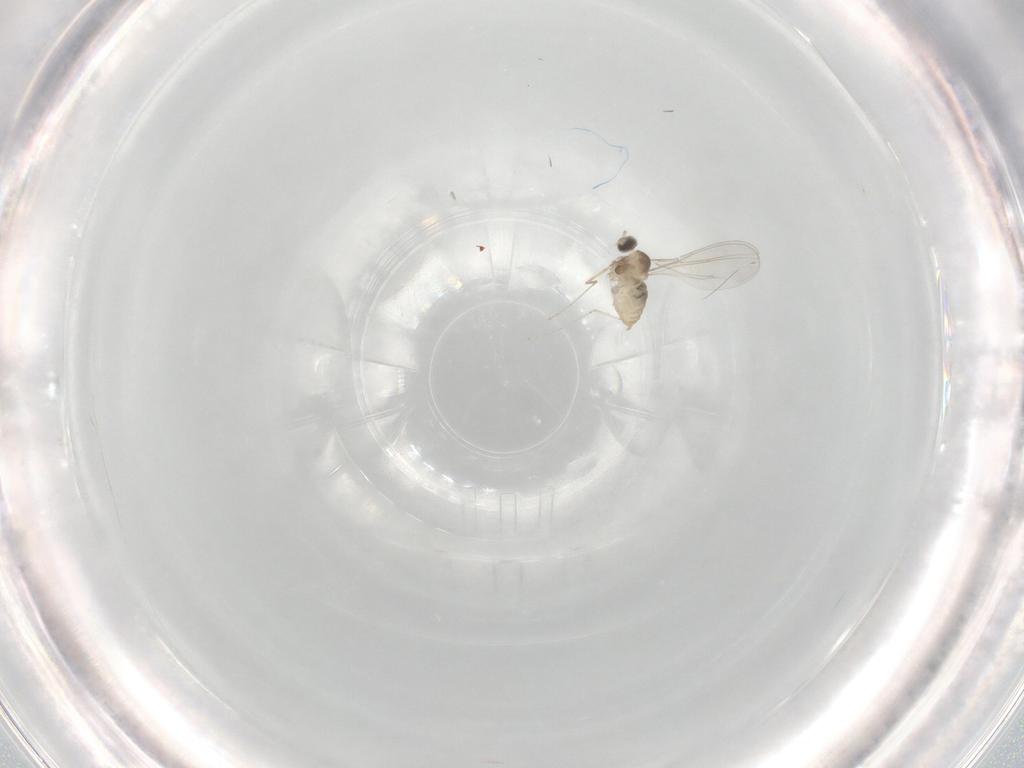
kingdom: Animalia
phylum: Arthropoda
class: Insecta
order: Diptera
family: Cecidomyiidae
